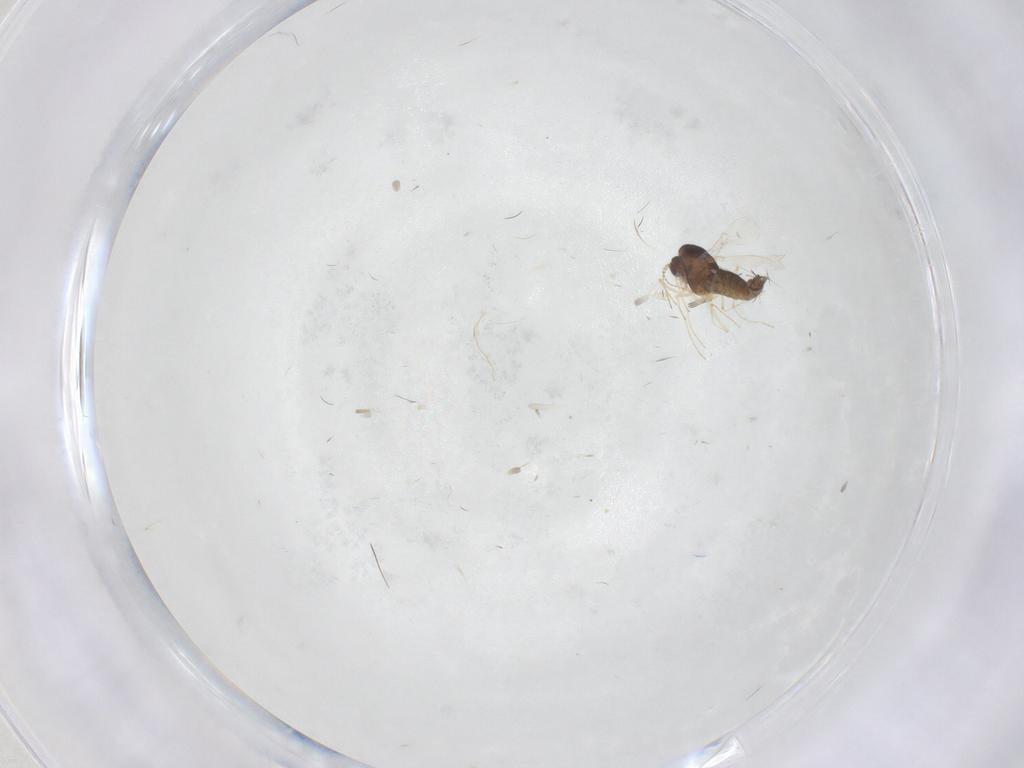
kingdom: Animalia
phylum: Arthropoda
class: Insecta
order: Diptera
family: Chironomidae
